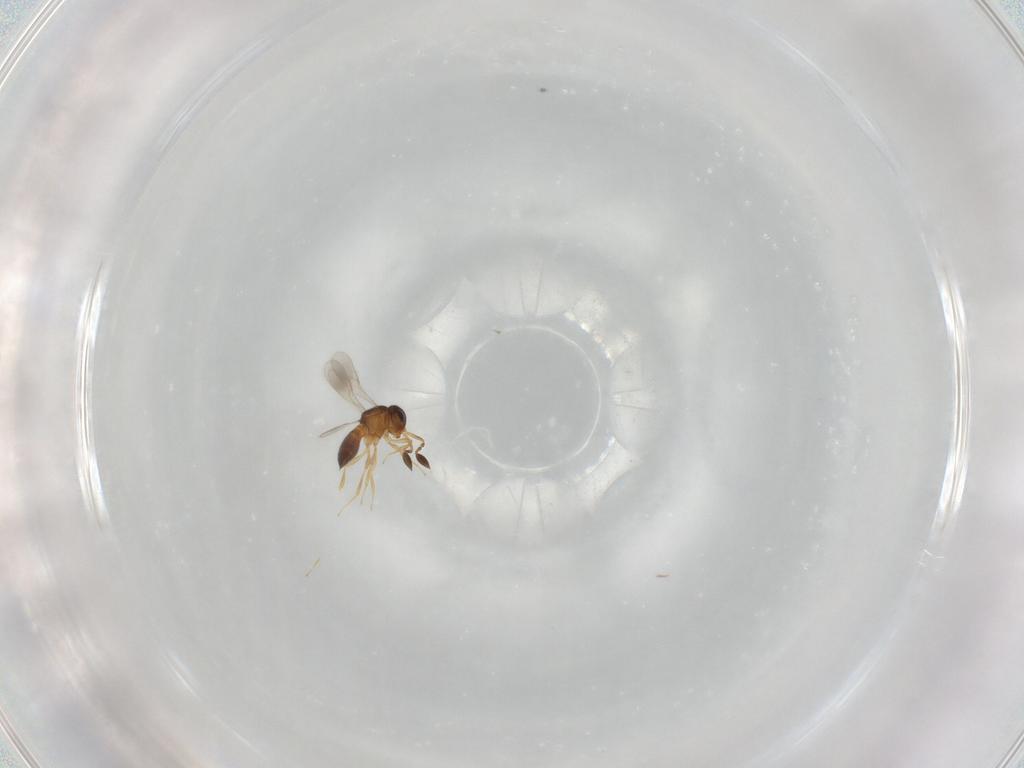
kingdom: Animalia
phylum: Arthropoda
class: Insecta
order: Hymenoptera
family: Scelionidae
